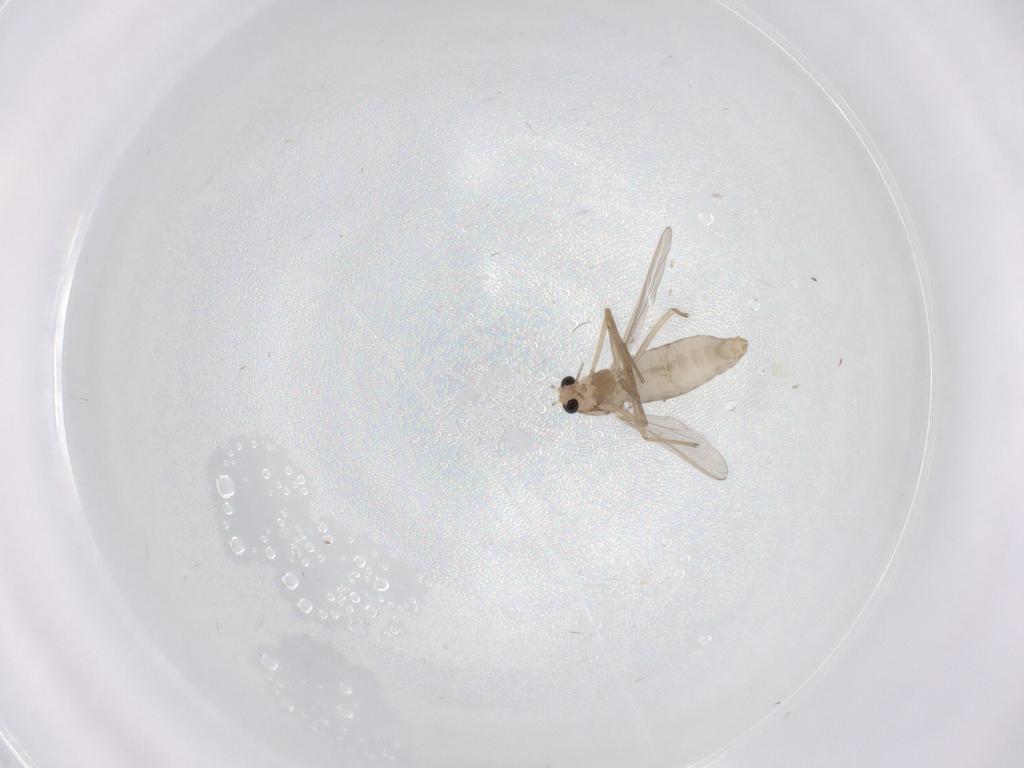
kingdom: Animalia
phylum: Arthropoda
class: Insecta
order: Diptera
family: Chironomidae
